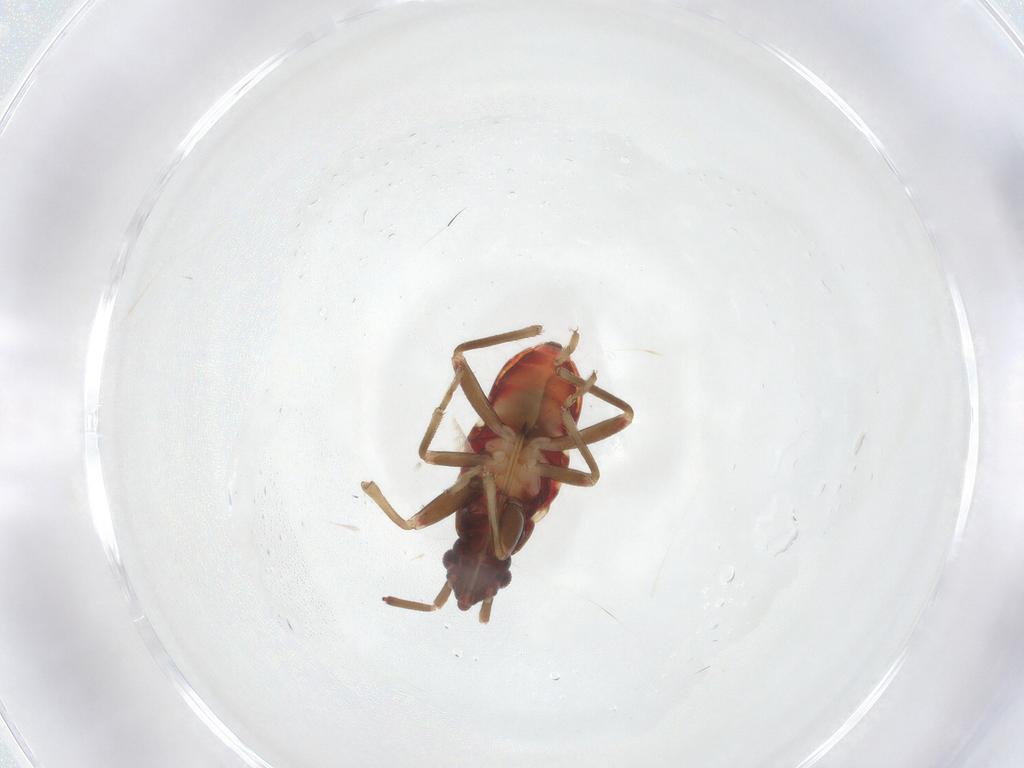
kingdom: Animalia
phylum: Arthropoda
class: Insecta
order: Hemiptera
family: Rhyparochromidae
